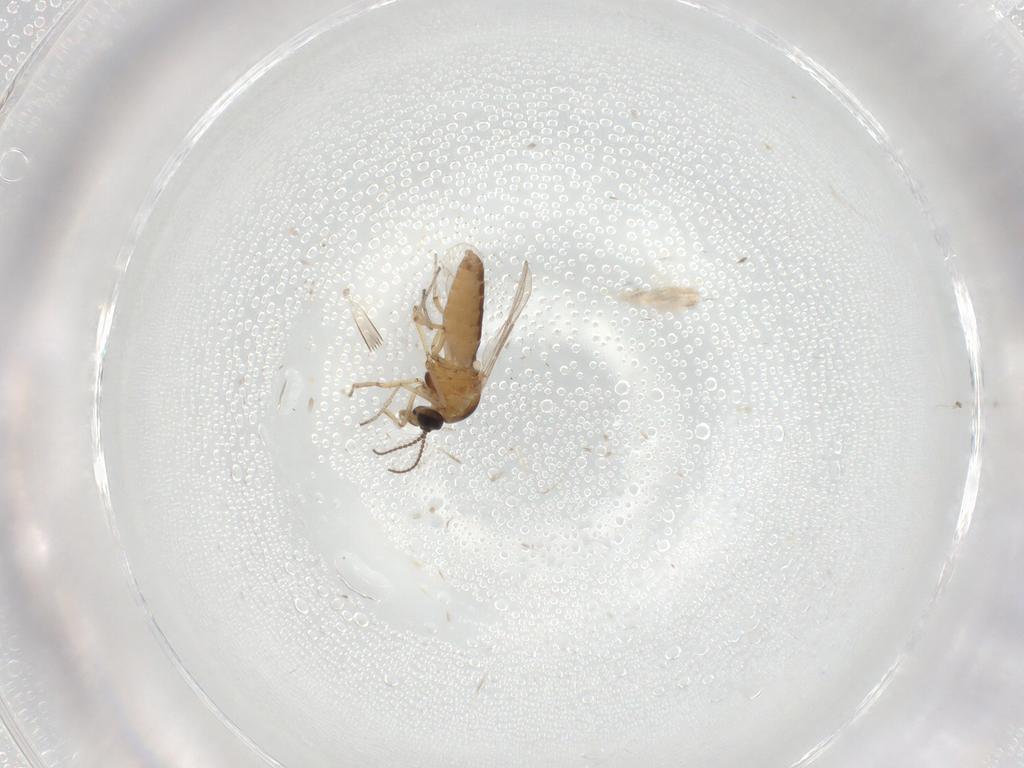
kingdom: Animalia
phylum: Arthropoda
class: Insecta
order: Diptera
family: Ceratopogonidae
